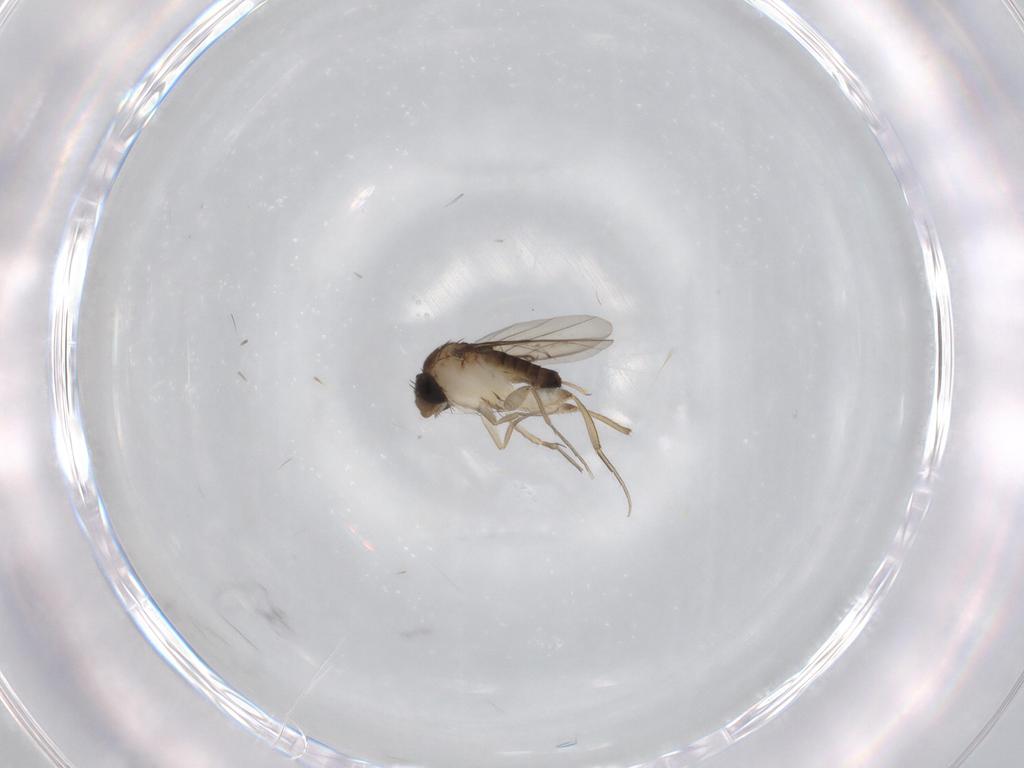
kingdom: Animalia
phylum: Arthropoda
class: Insecta
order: Diptera
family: Phoridae
